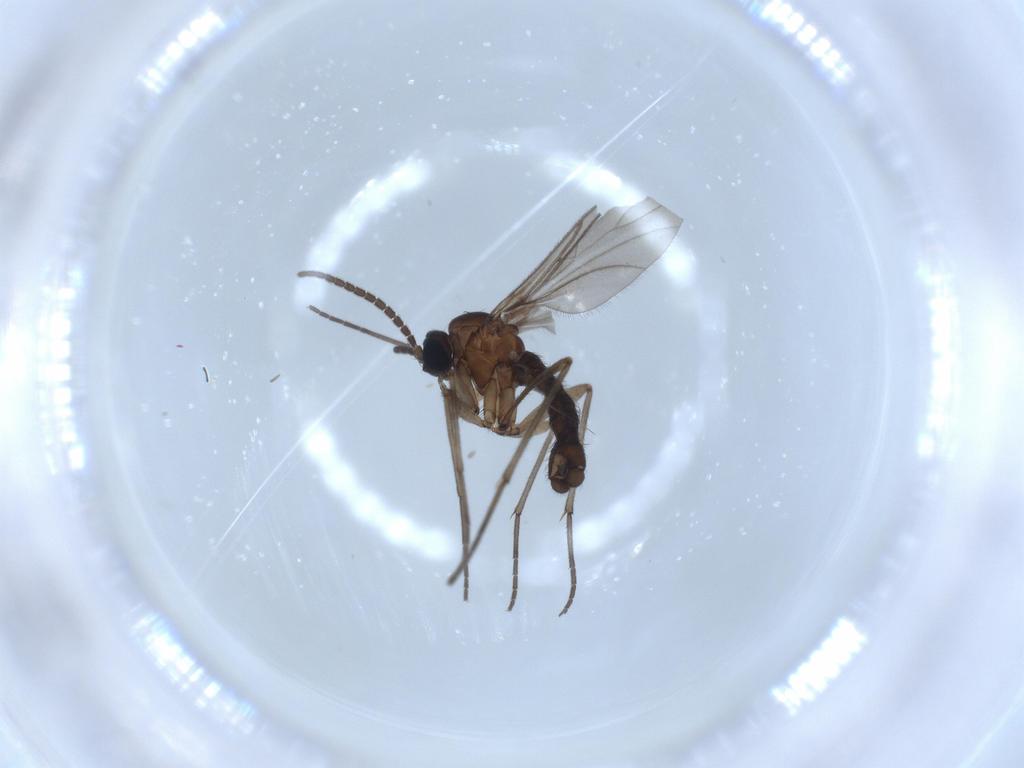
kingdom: Animalia
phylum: Arthropoda
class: Insecta
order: Diptera
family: Sciaridae
